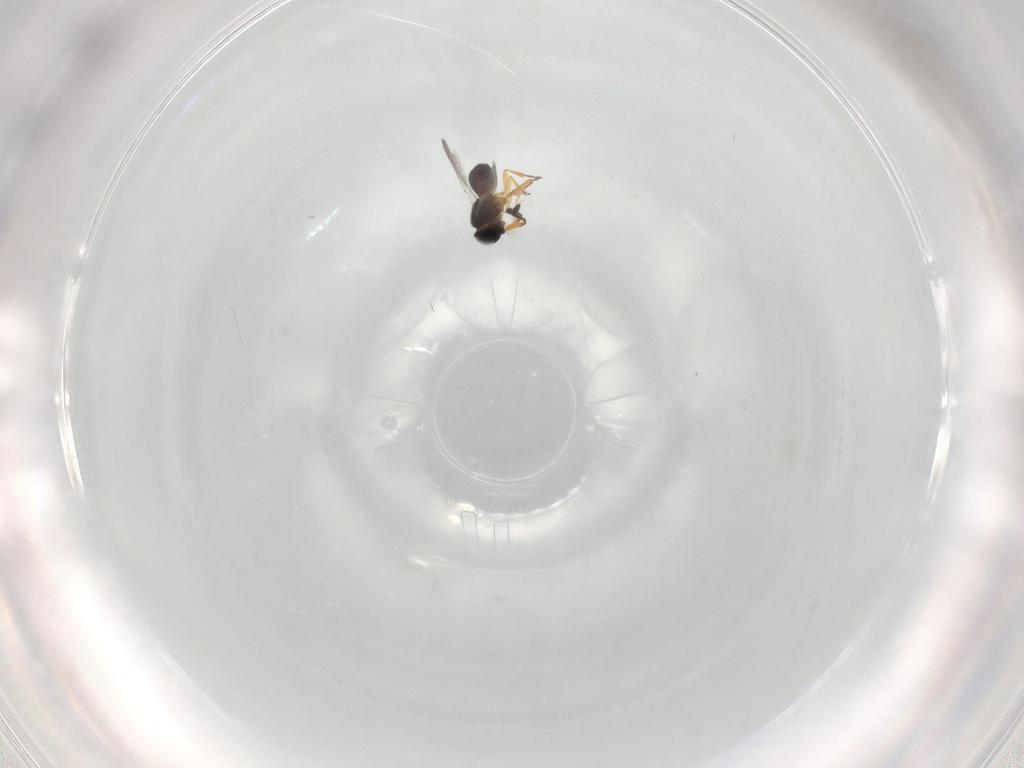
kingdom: Animalia
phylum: Arthropoda
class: Insecta
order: Hymenoptera
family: Scelionidae
